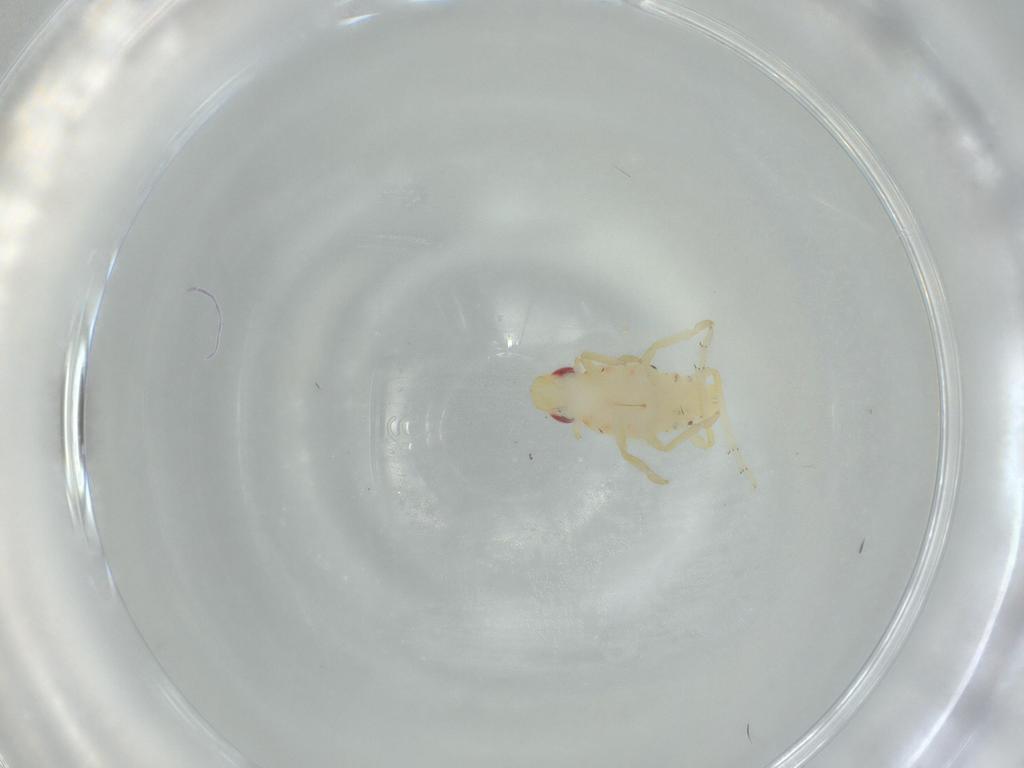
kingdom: Animalia
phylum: Arthropoda
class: Insecta
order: Hemiptera
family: Tropiduchidae
